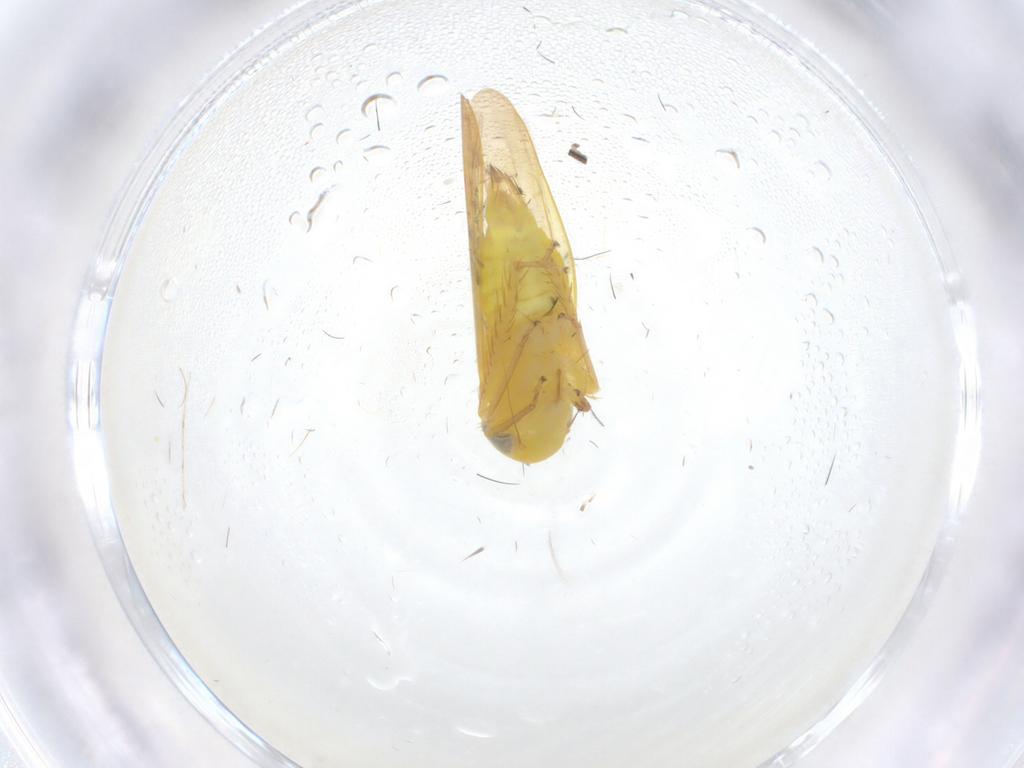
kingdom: Animalia
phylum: Arthropoda
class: Insecta
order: Hemiptera
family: Cicadellidae
